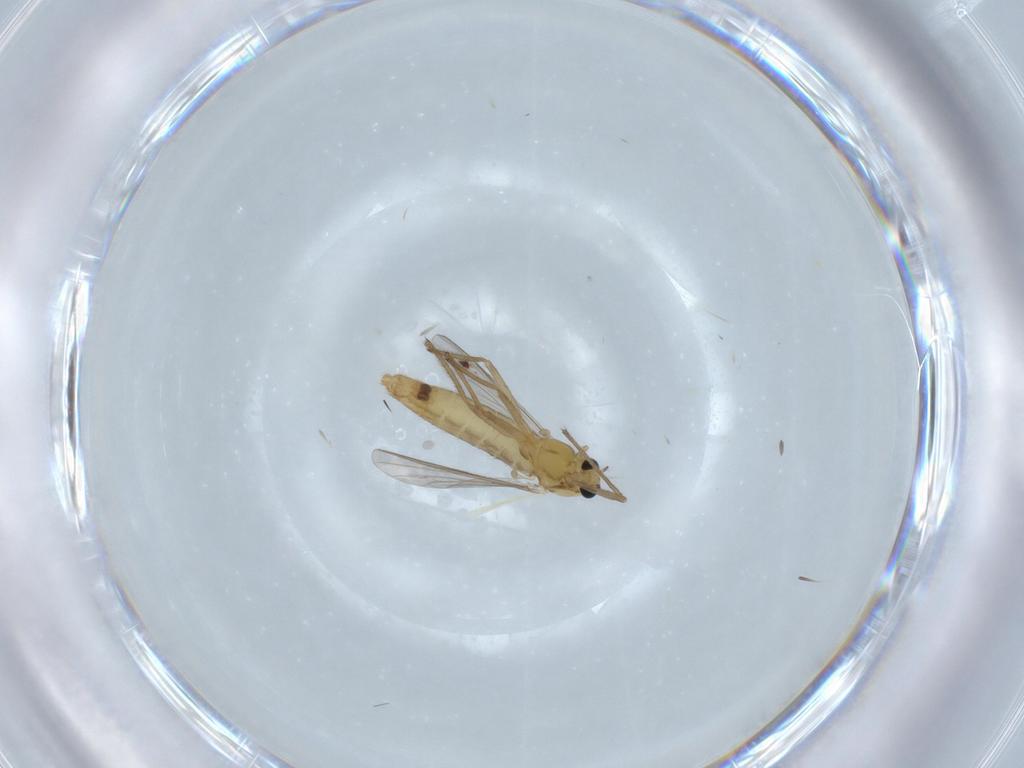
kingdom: Animalia
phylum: Arthropoda
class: Insecta
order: Diptera
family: Chironomidae
